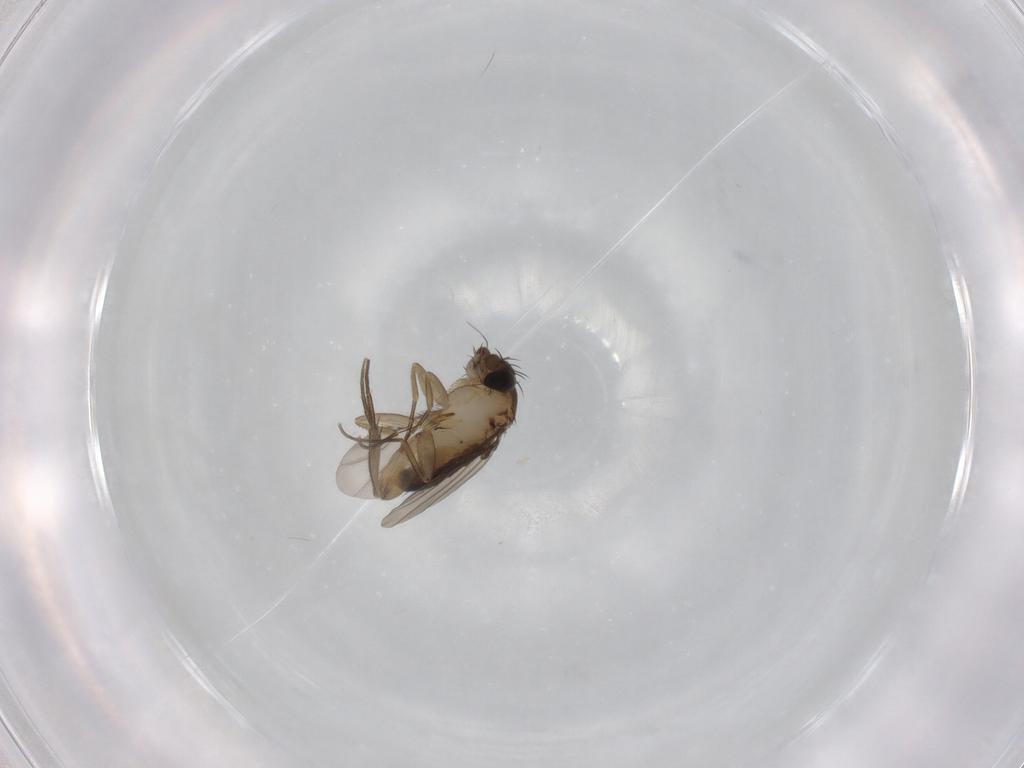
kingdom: Animalia
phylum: Arthropoda
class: Insecta
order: Diptera
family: Phoridae
